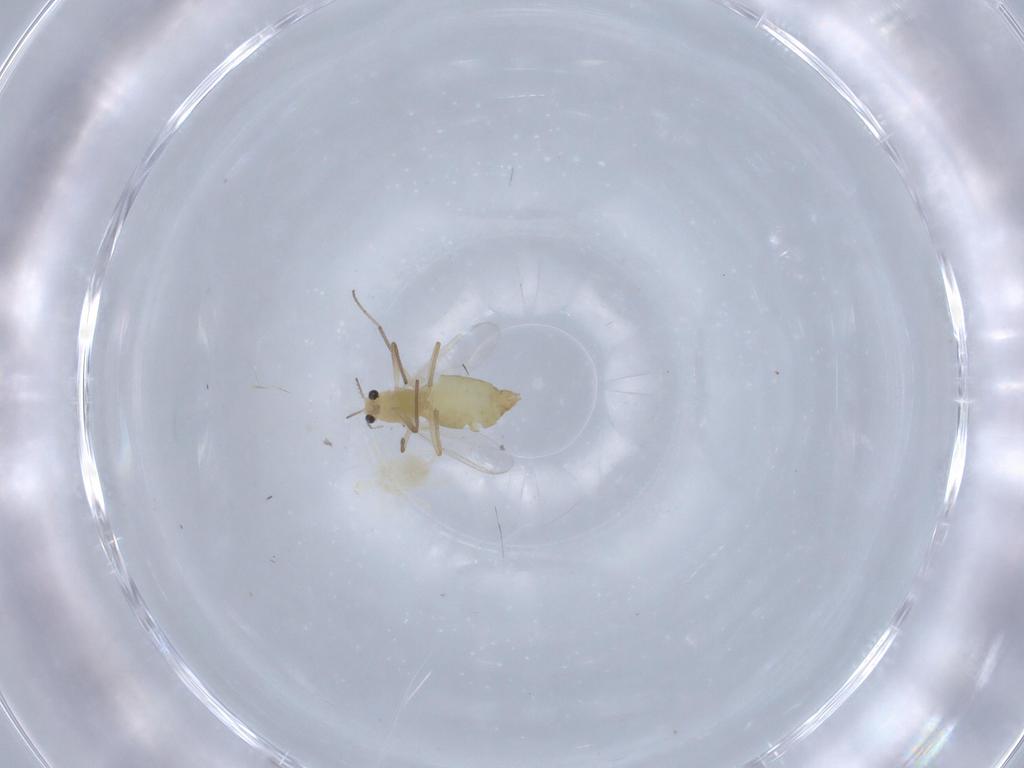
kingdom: Animalia
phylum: Arthropoda
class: Insecta
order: Diptera
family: Chironomidae
